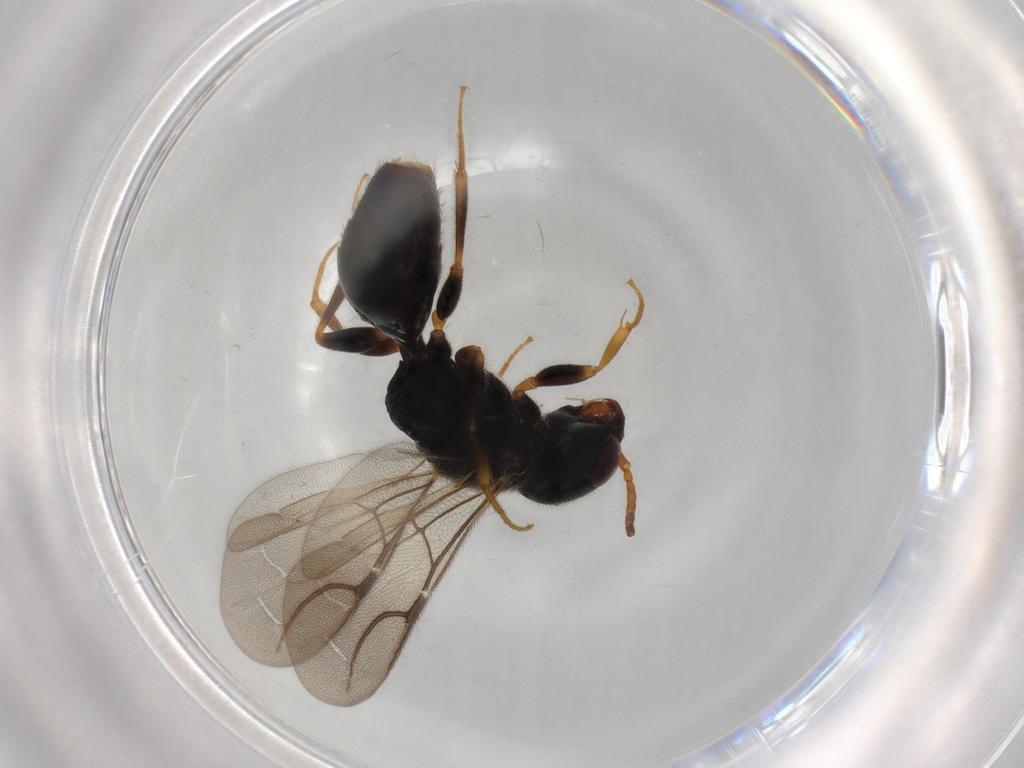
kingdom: Animalia
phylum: Arthropoda
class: Insecta
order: Hymenoptera
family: Bethylidae
